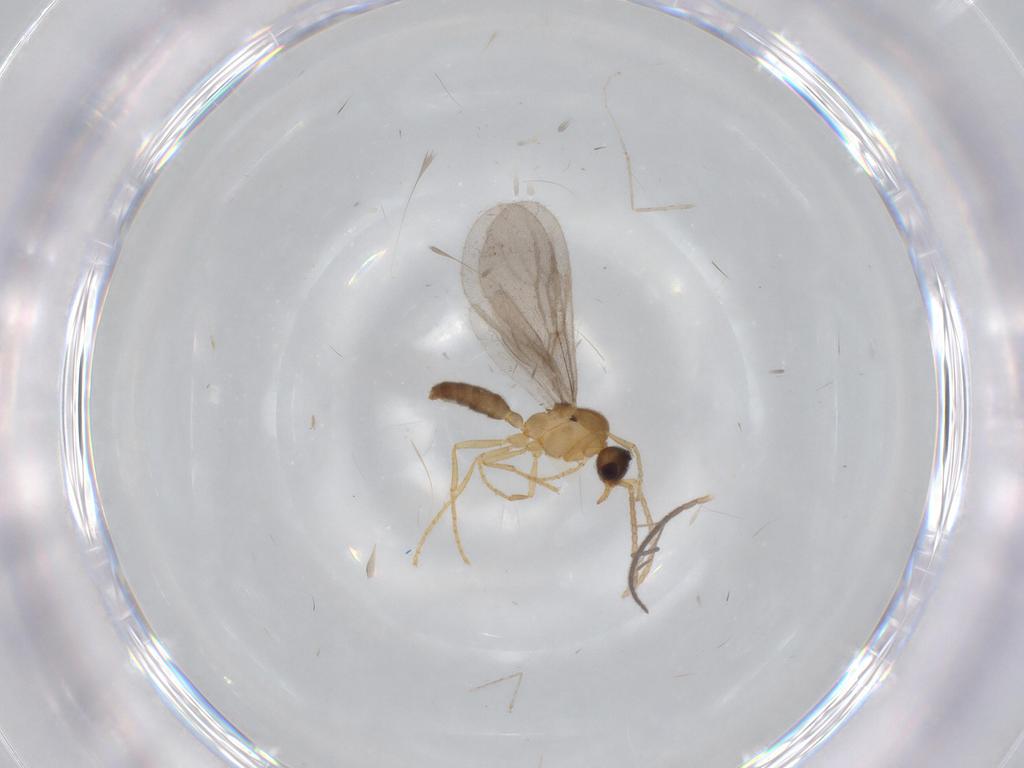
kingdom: Animalia
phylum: Arthropoda
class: Insecta
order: Diptera
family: Sciaridae
